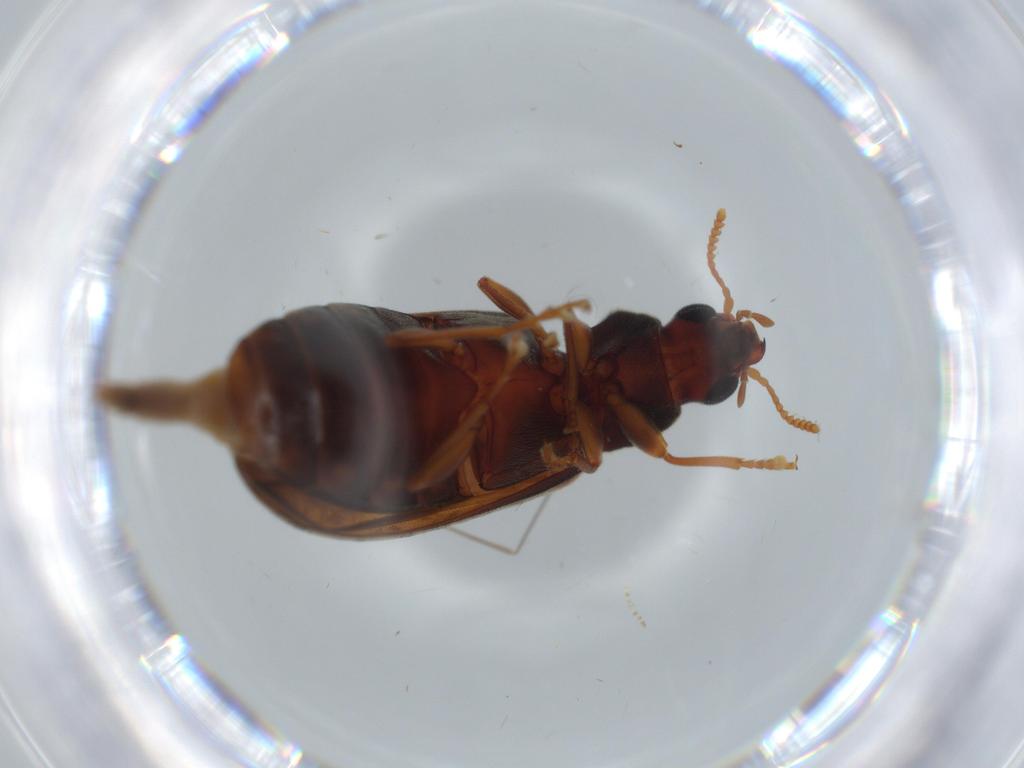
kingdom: Animalia
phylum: Arthropoda
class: Insecta
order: Coleoptera
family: Mycteridae
